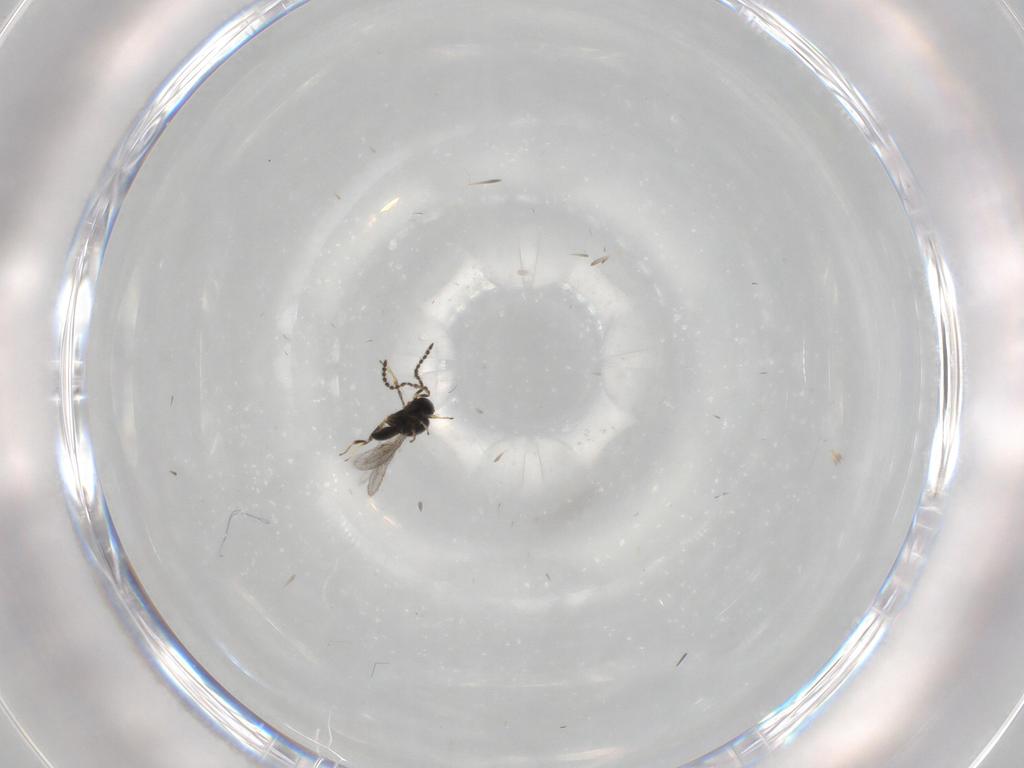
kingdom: Animalia
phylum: Arthropoda
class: Insecta
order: Hymenoptera
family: Scelionidae
